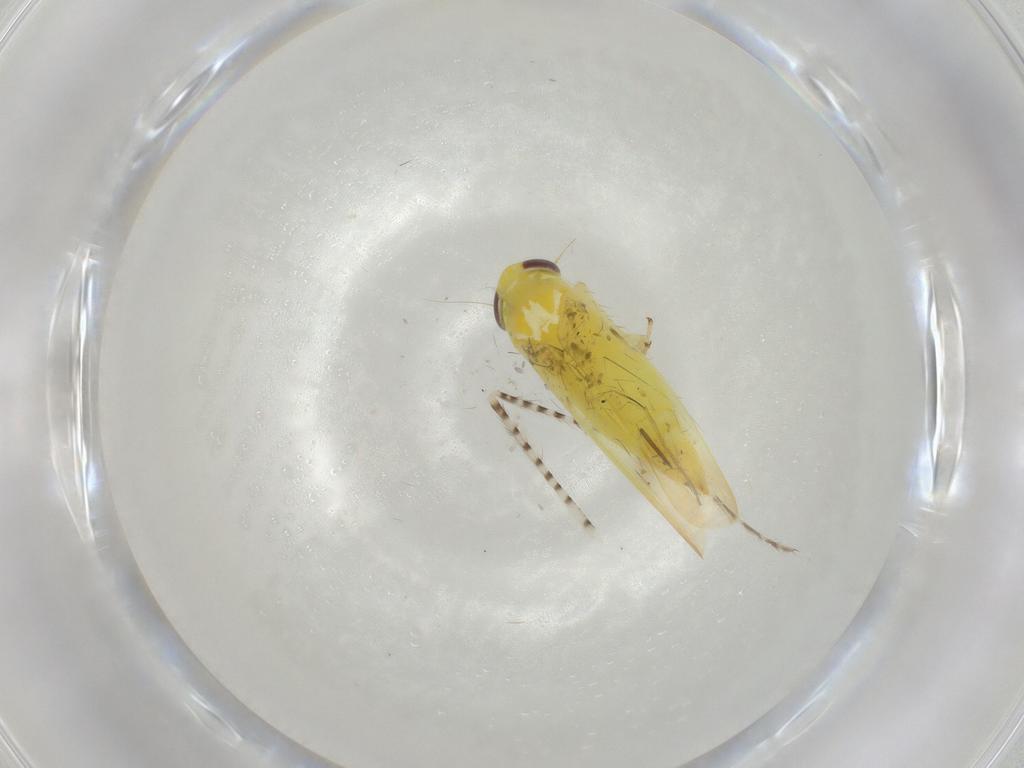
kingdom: Animalia
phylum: Arthropoda
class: Insecta
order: Hemiptera
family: Cicadellidae
